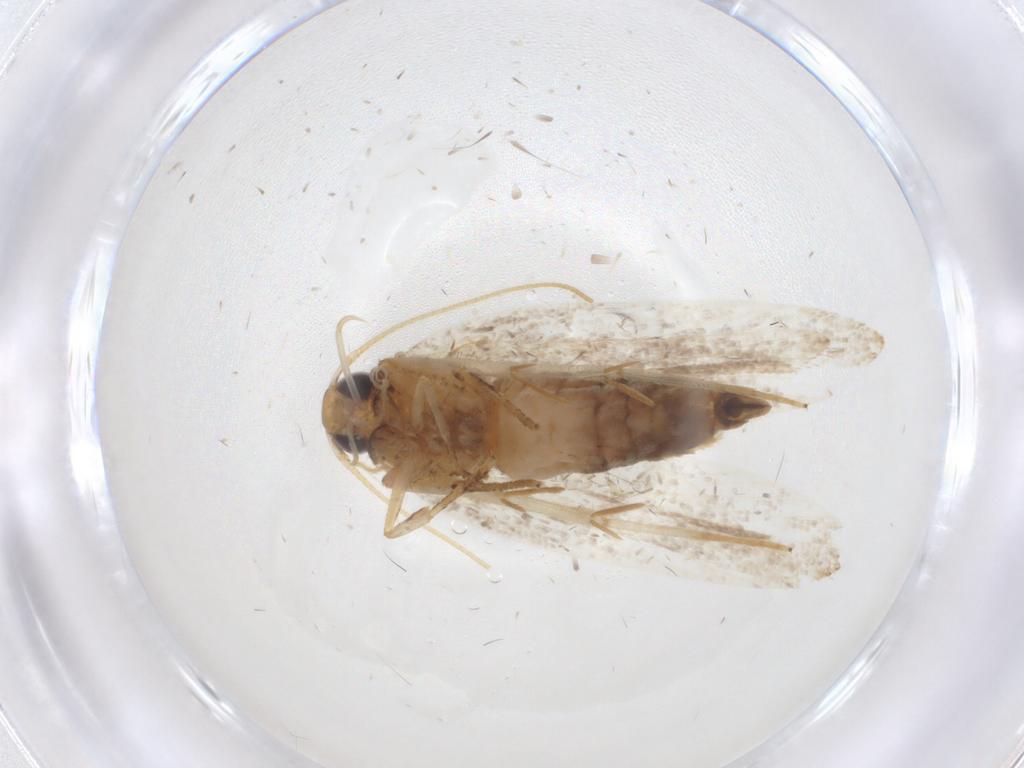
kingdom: Animalia
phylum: Arthropoda
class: Insecta
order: Lepidoptera
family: Oecophoridae
